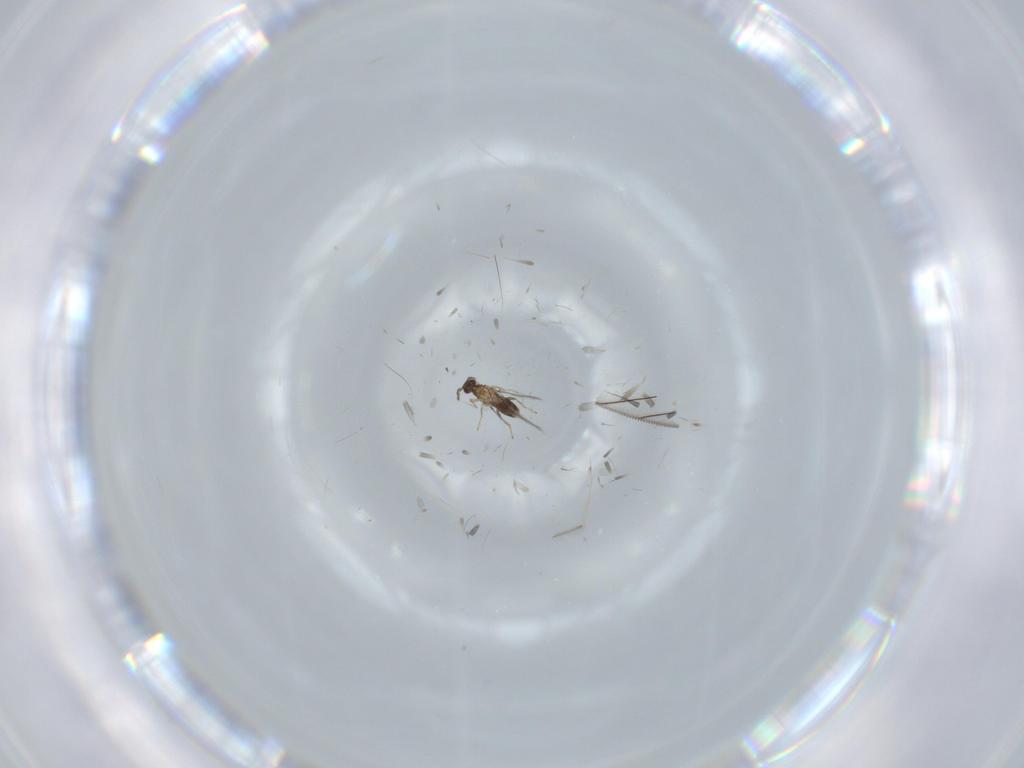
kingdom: Animalia
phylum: Arthropoda
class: Insecta
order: Hymenoptera
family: Mymaridae
